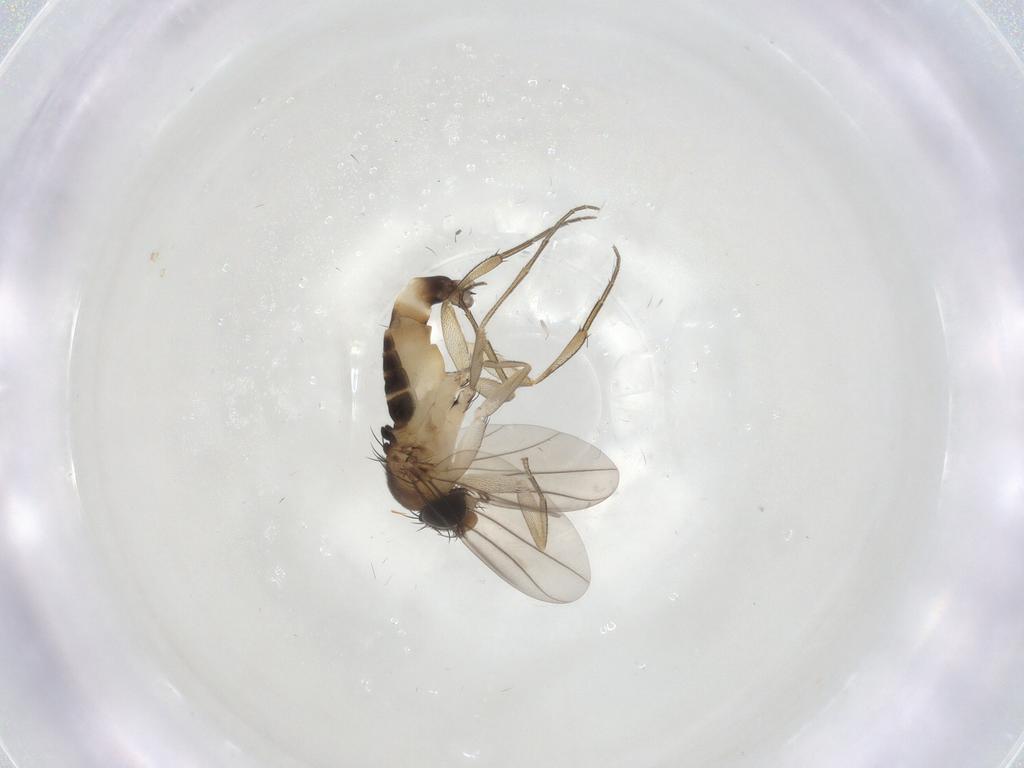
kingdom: Animalia
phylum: Arthropoda
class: Insecta
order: Diptera
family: Phoridae
